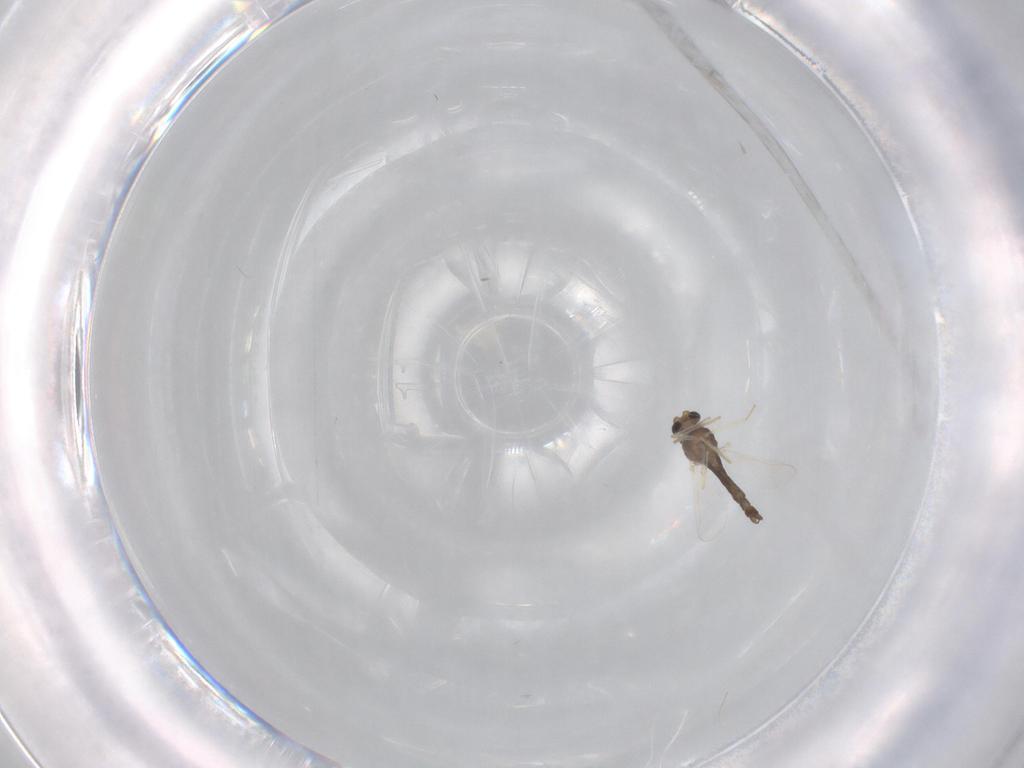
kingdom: Animalia
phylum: Arthropoda
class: Insecta
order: Diptera
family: Chironomidae
